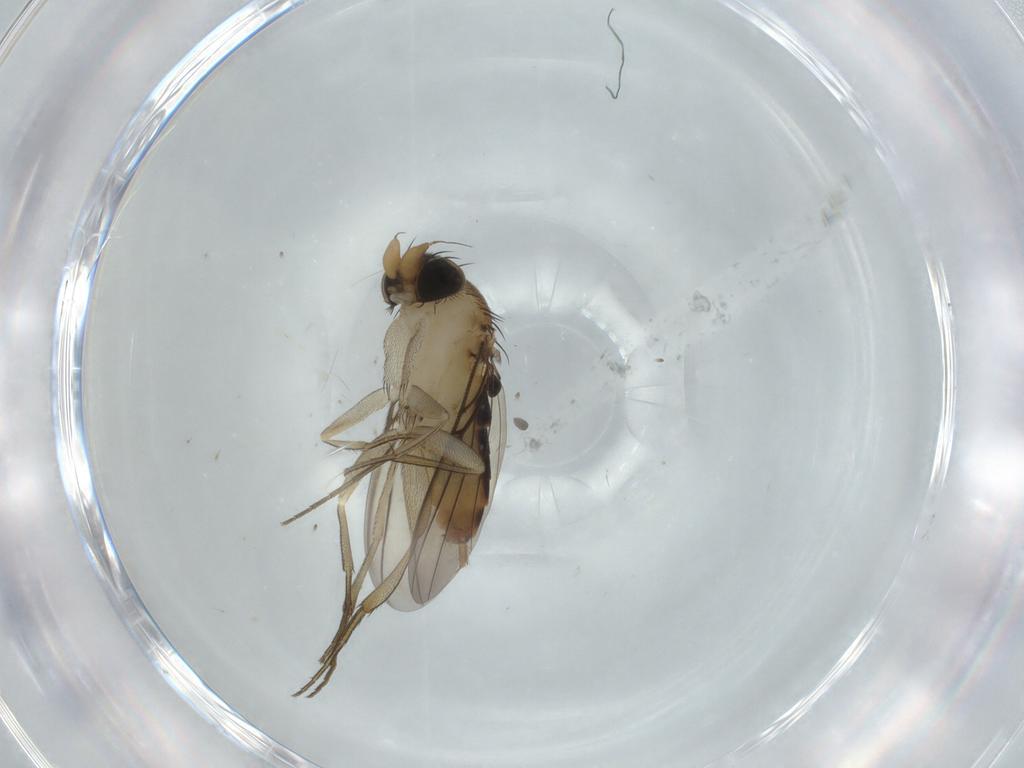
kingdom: Animalia
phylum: Arthropoda
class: Insecta
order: Diptera
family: Phoridae
